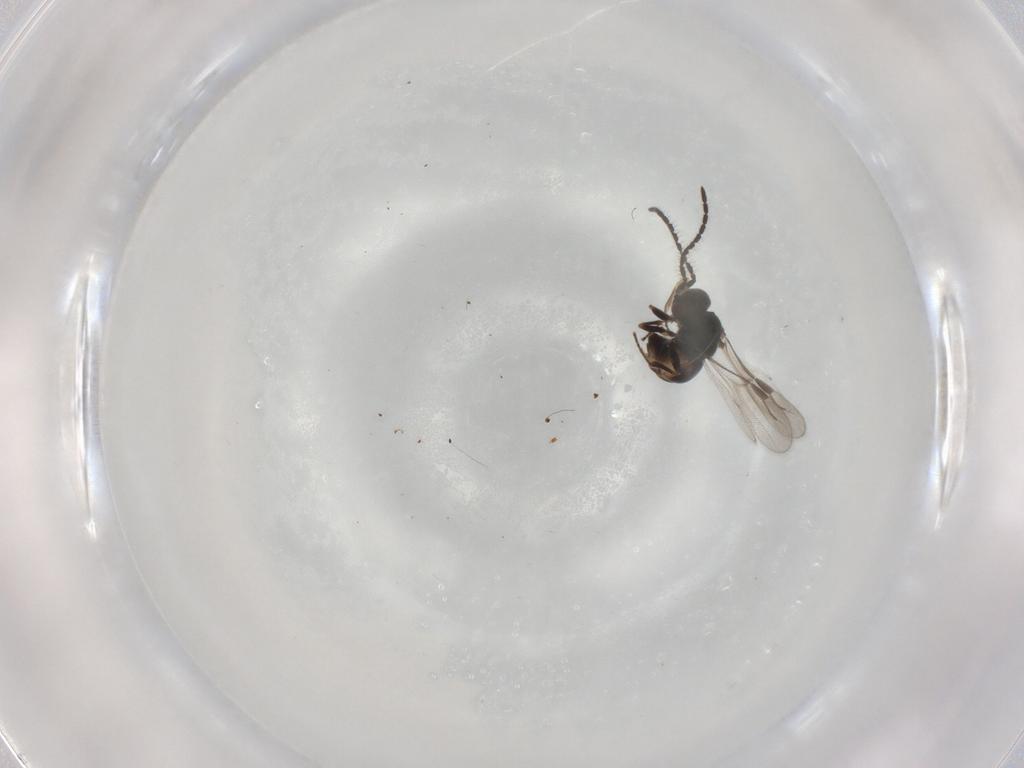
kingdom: Animalia
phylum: Arthropoda
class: Insecta
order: Hymenoptera
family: Megaspilidae
